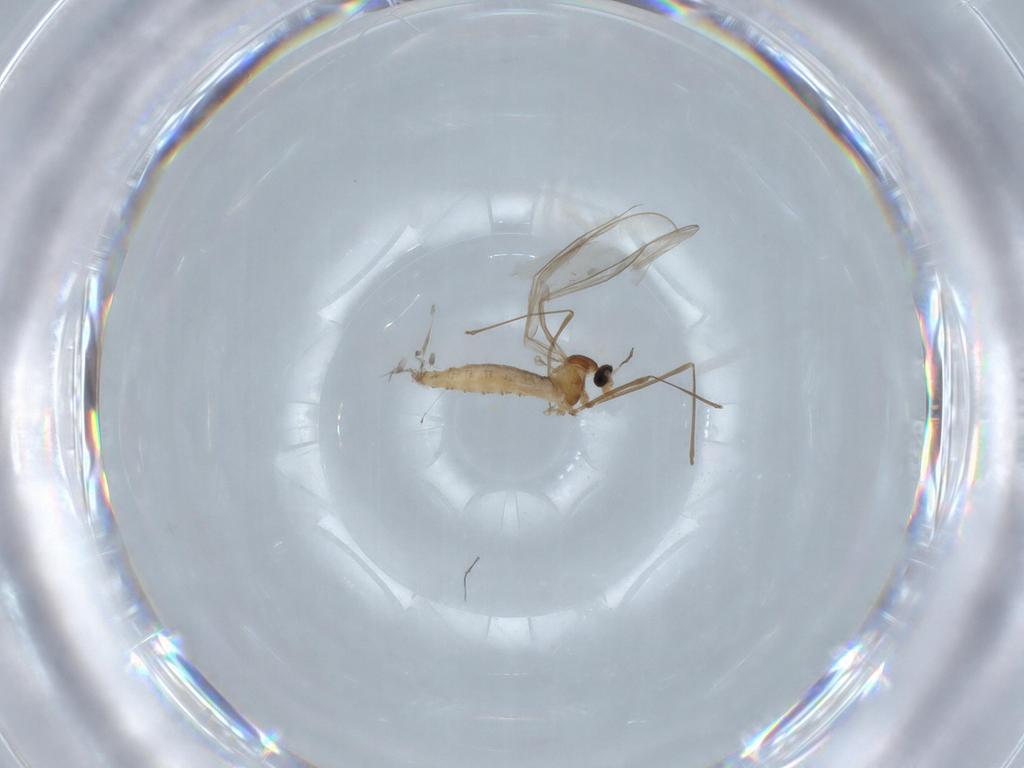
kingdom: Animalia
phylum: Arthropoda
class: Insecta
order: Diptera
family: Cecidomyiidae
